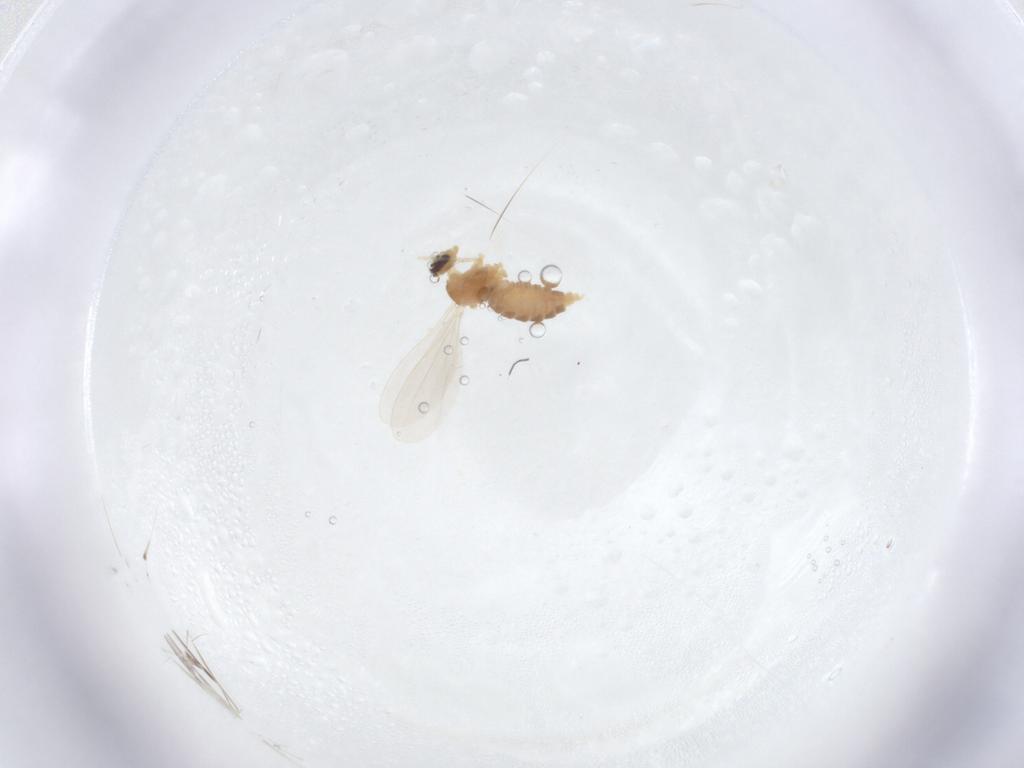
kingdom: Animalia
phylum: Arthropoda
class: Insecta
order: Diptera
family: Cecidomyiidae
